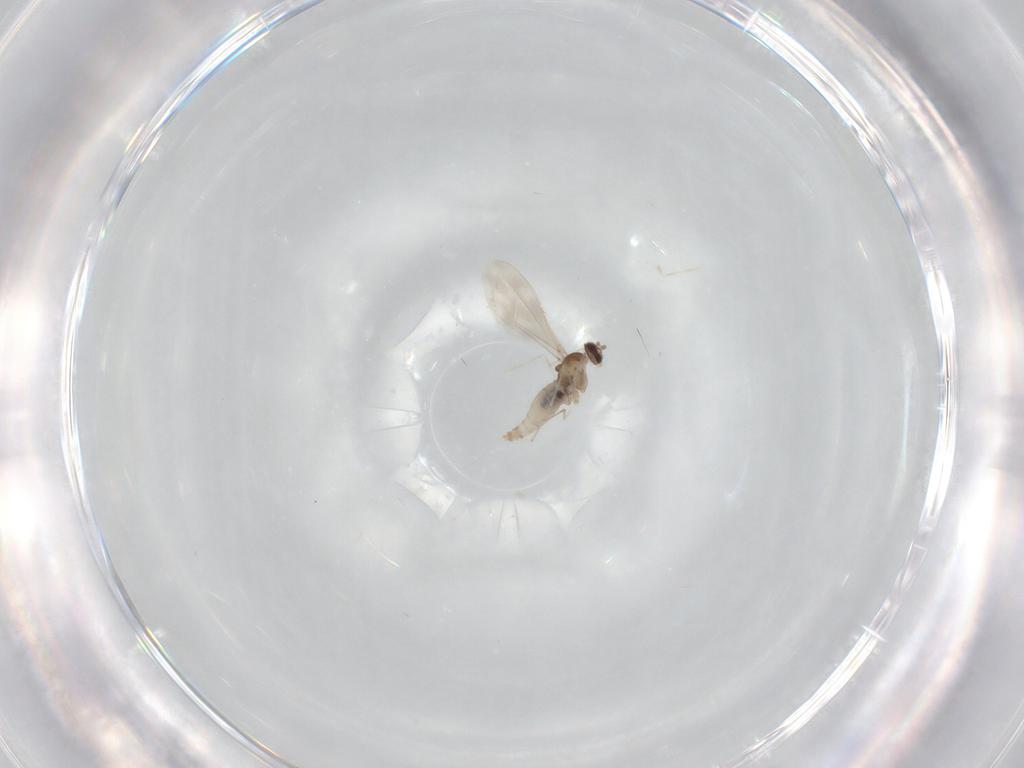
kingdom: Animalia
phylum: Arthropoda
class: Insecta
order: Diptera
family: Cecidomyiidae
